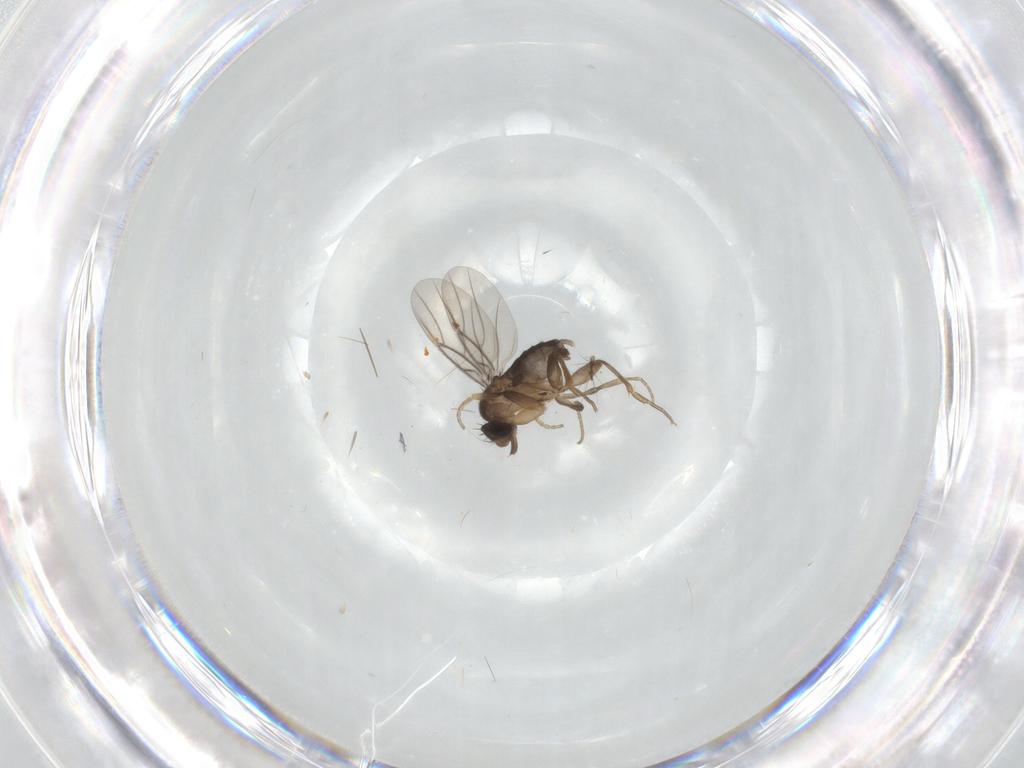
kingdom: Animalia
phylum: Arthropoda
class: Insecta
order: Diptera
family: Phoridae
